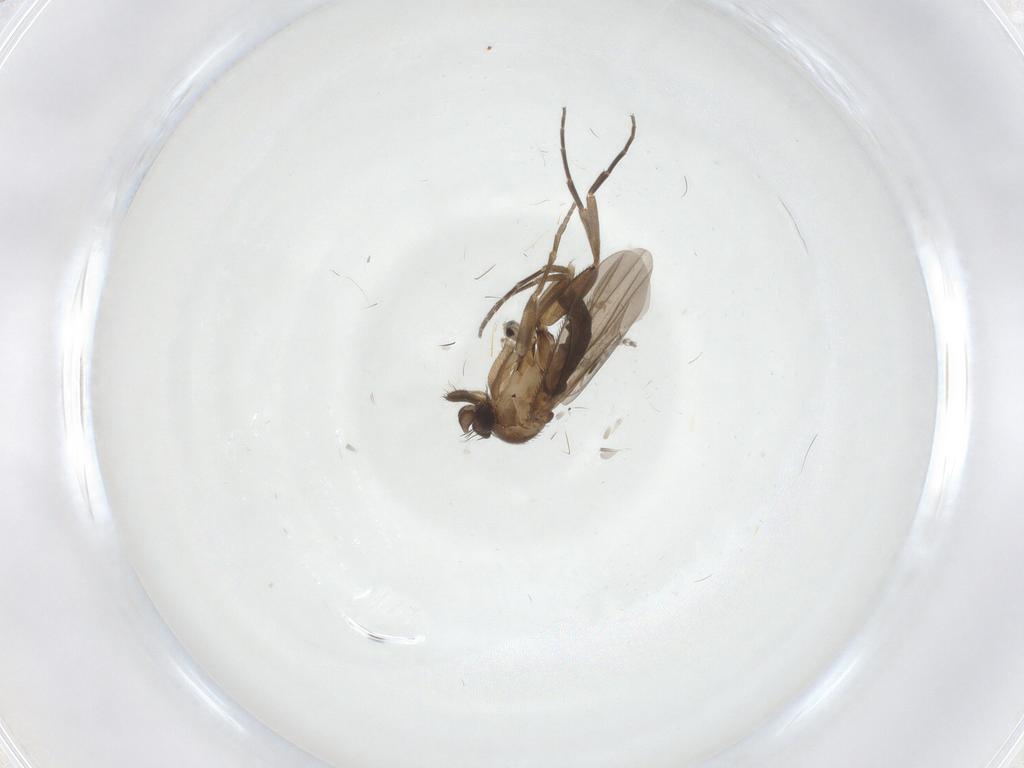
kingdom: Animalia
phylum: Arthropoda
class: Insecta
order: Diptera
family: Phoridae
